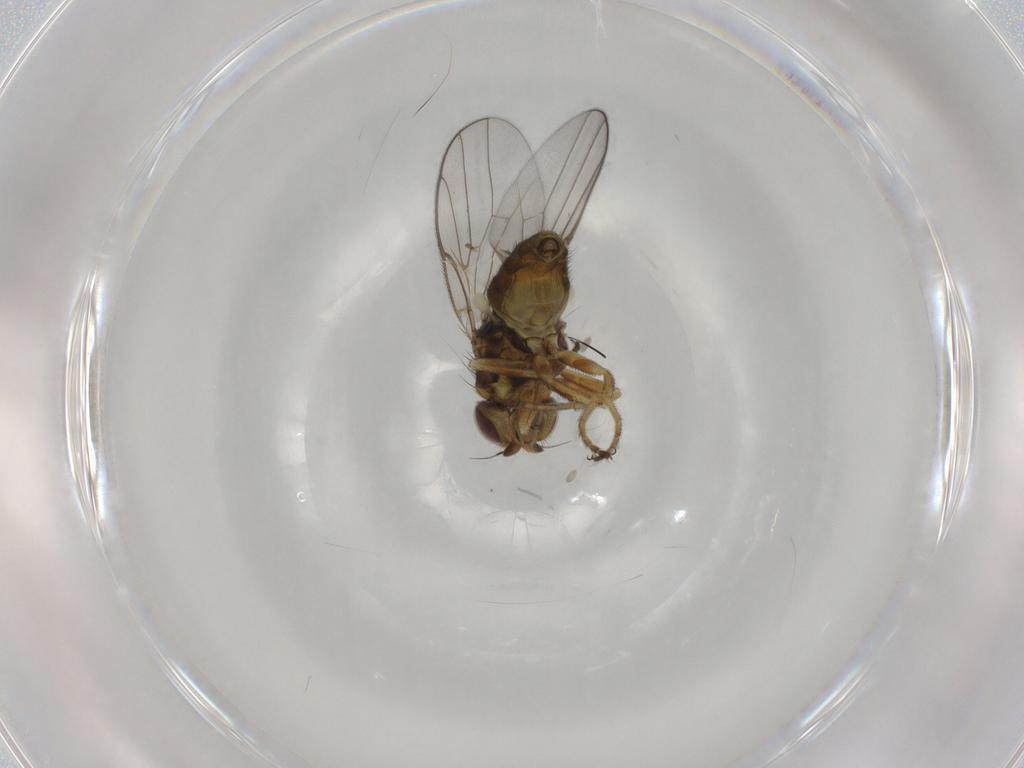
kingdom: Animalia
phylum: Arthropoda
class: Insecta
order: Diptera
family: Chloropidae
